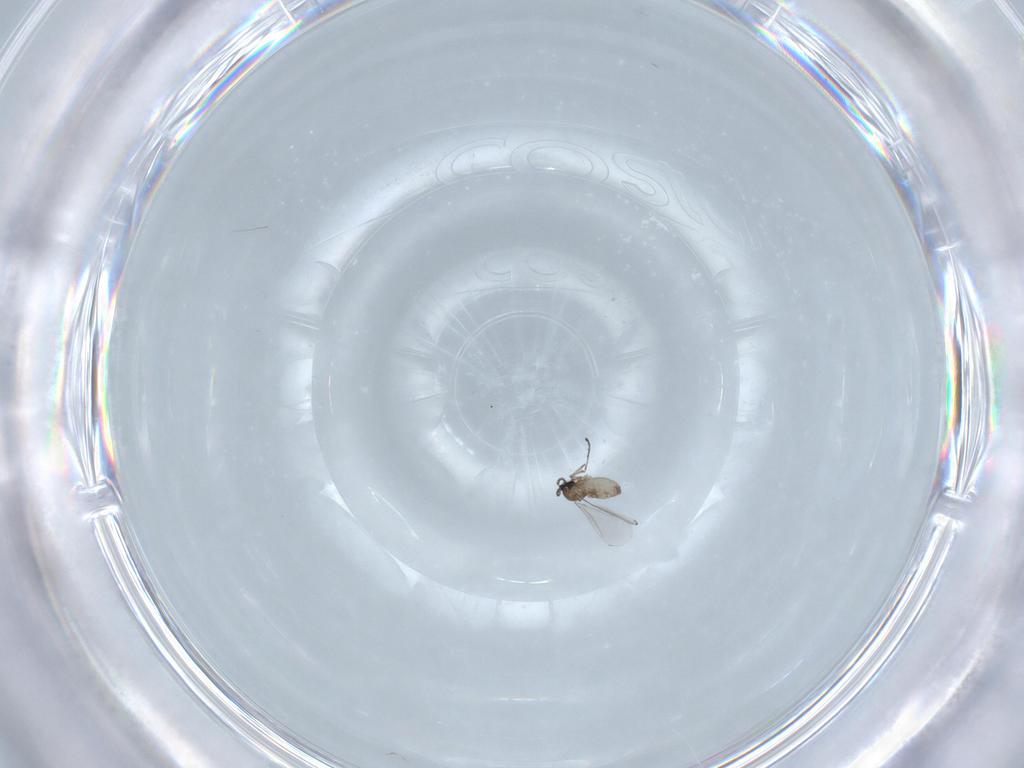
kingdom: Animalia
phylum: Arthropoda
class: Insecta
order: Diptera
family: Cecidomyiidae
